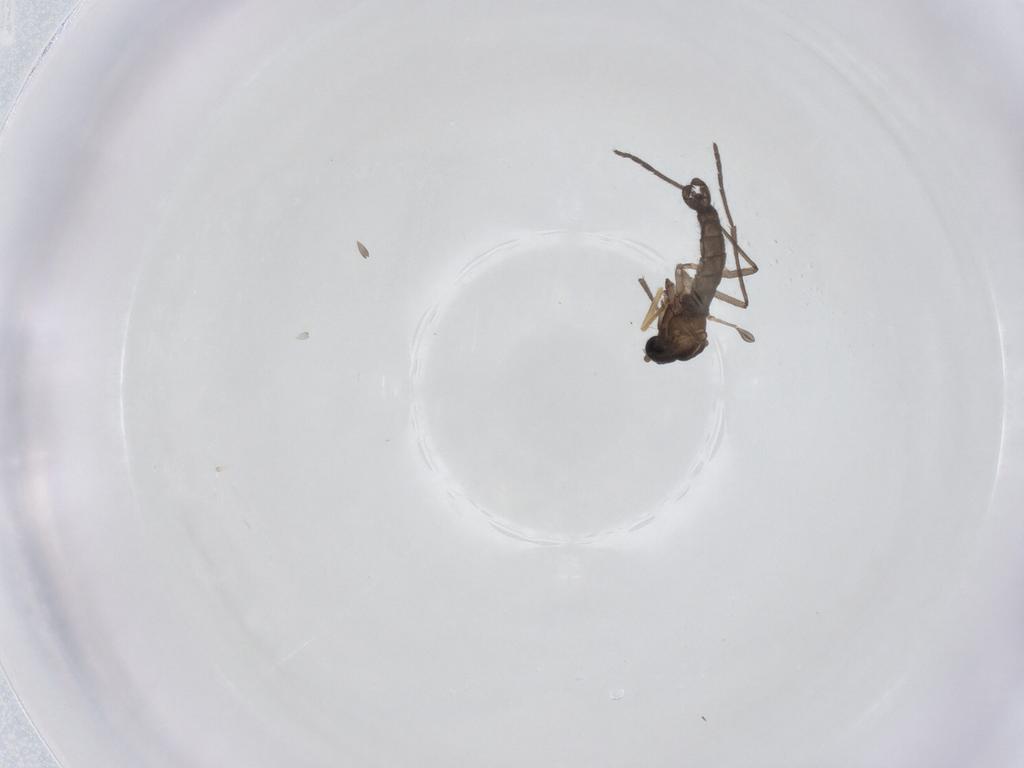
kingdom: Animalia
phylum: Arthropoda
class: Insecta
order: Diptera
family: Sciaridae
